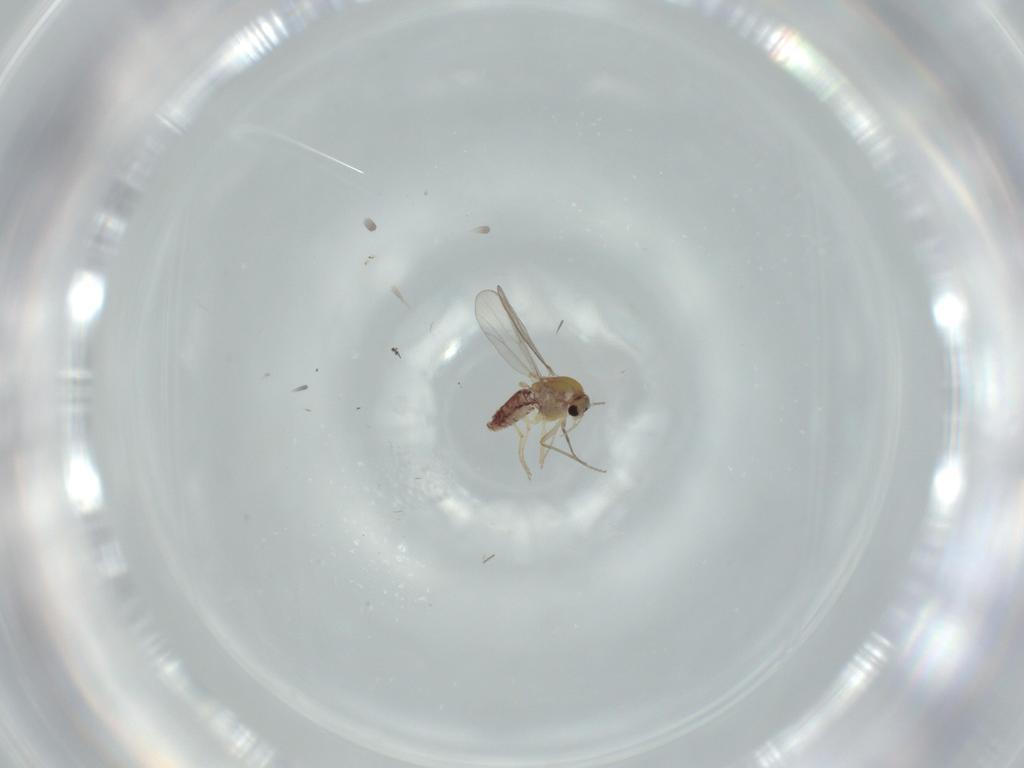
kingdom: Animalia
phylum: Arthropoda
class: Insecta
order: Diptera
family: Chironomidae
